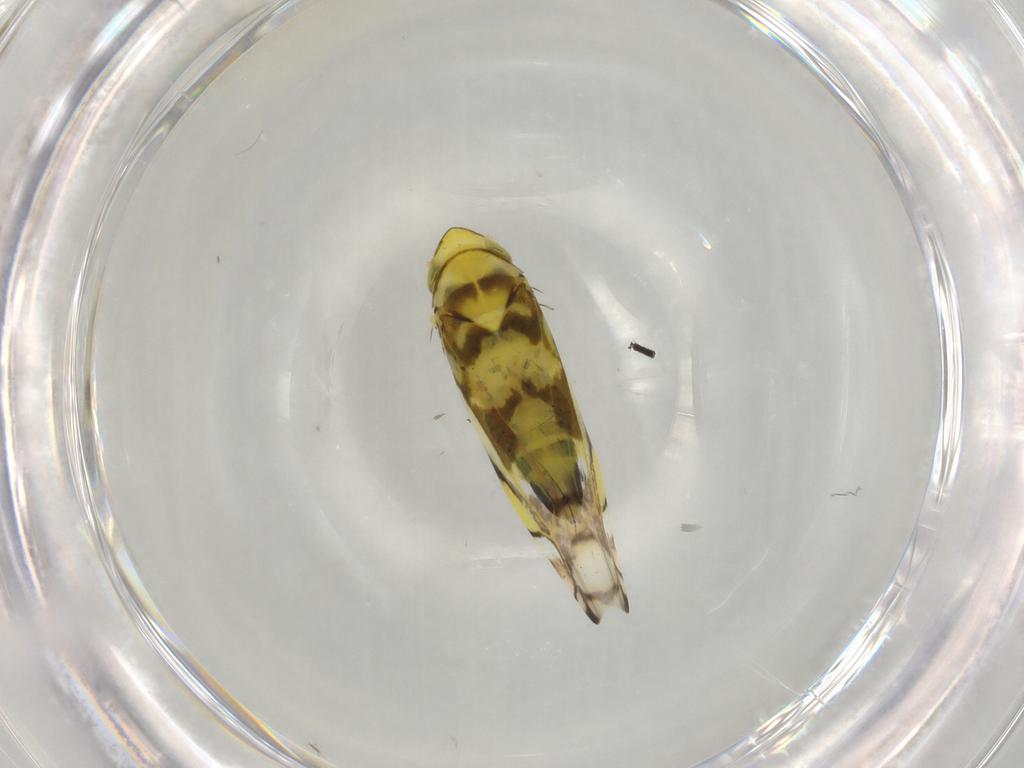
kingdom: Animalia
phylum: Arthropoda
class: Insecta
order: Hemiptera
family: Cicadellidae
